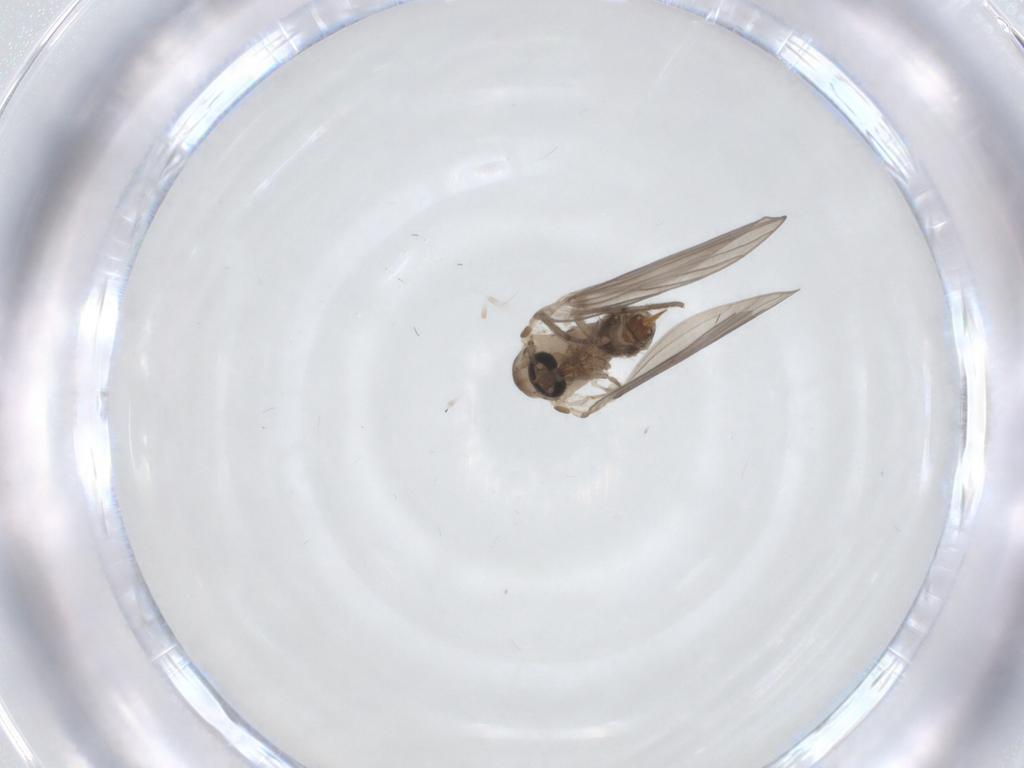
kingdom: Animalia
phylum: Arthropoda
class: Insecta
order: Diptera
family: Psychodidae
